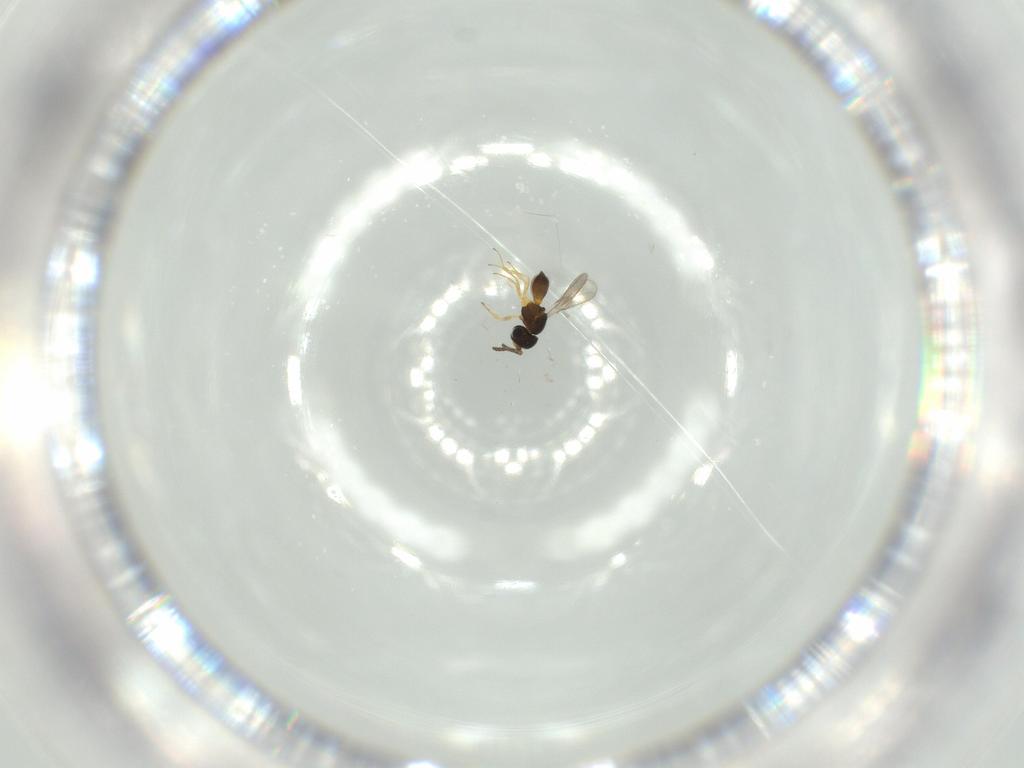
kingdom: Animalia
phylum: Arthropoda
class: Insecta
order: Hymenoptera
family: Scelionidae
